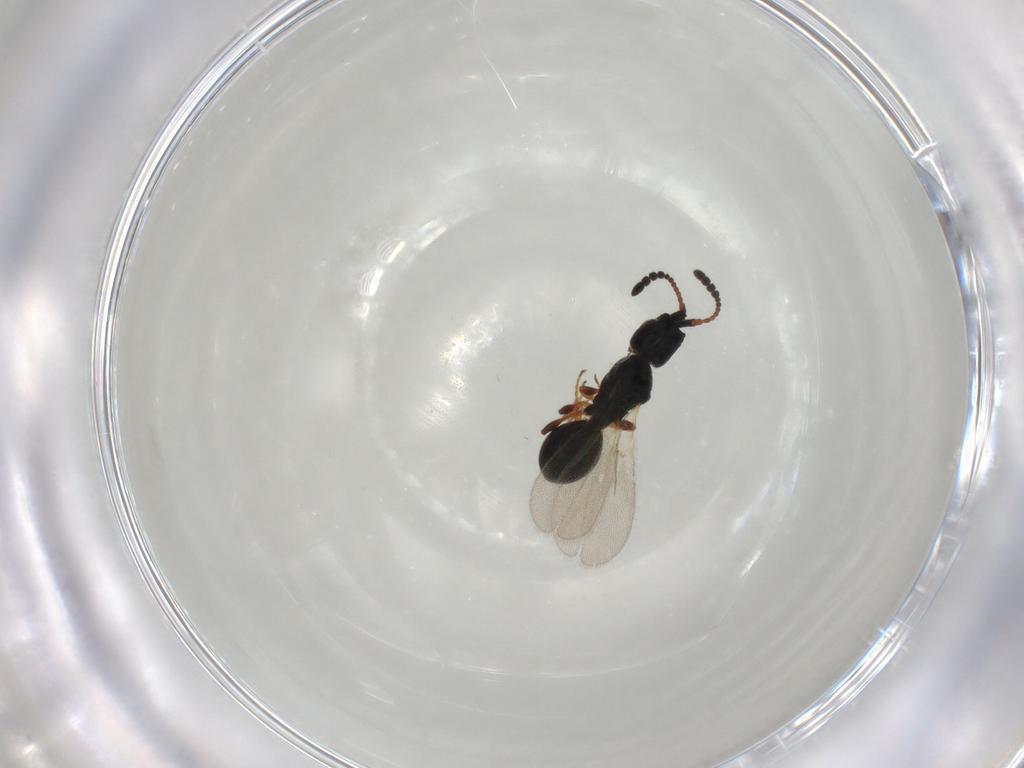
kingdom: Animalia
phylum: Arthropoda
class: Insecta
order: Hymenoptera
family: Diapriidae
